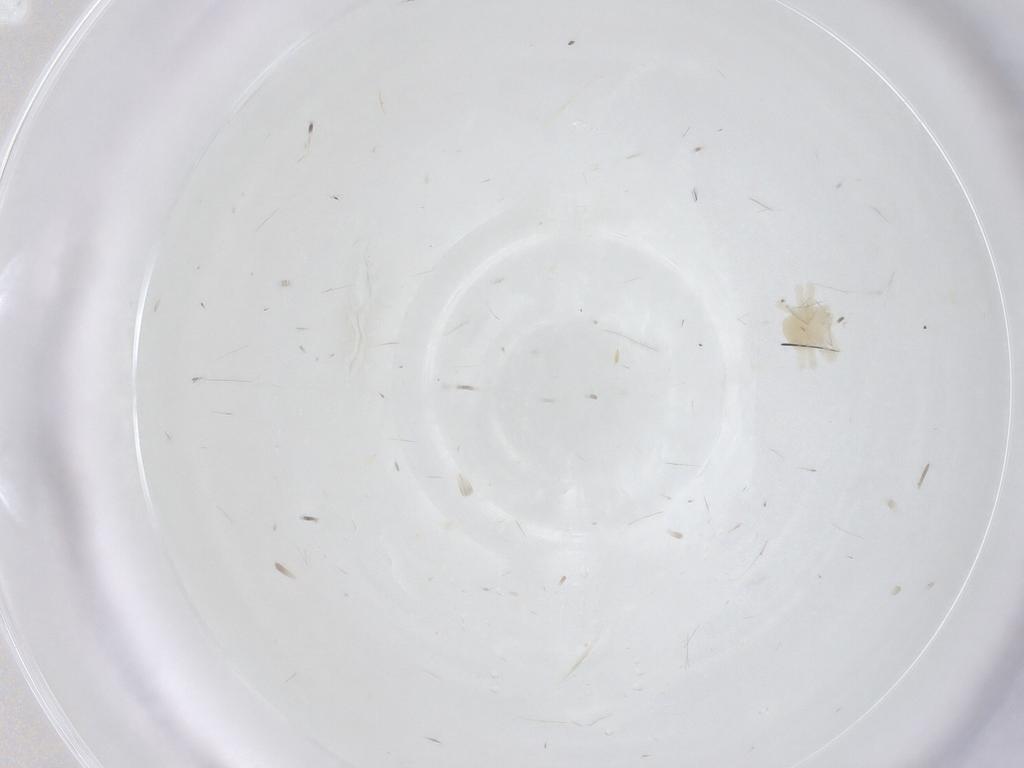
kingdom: Animalia
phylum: Arthropoda
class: Arachnida
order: Trombidiformes
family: Anystidae
